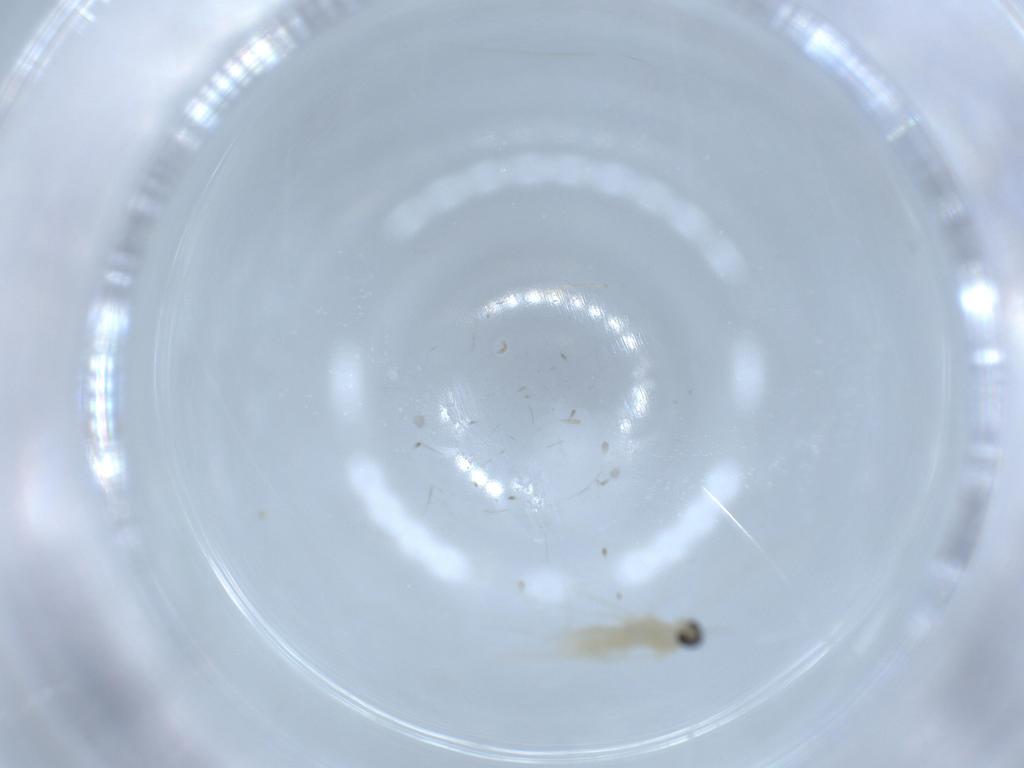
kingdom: Animalia
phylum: Arthropoda
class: Insecta
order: Diptera
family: Cecidomyiidae
